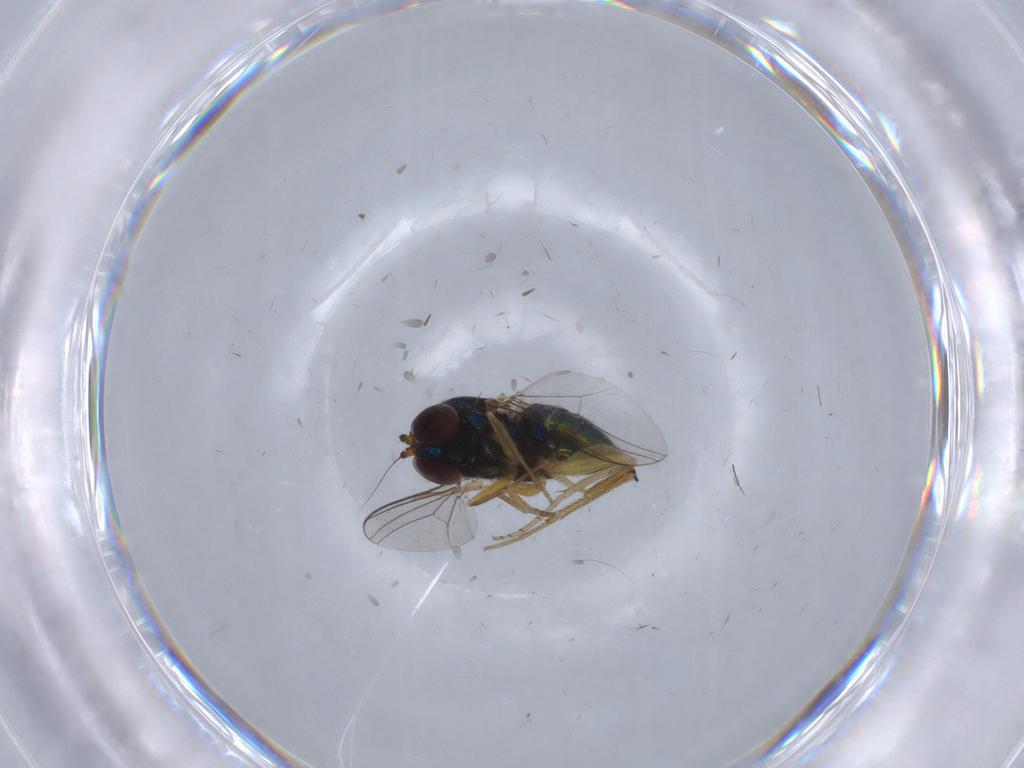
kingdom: Animalia
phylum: Arthropoda
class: Insecta
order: Diptera
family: Dolichopodidae
